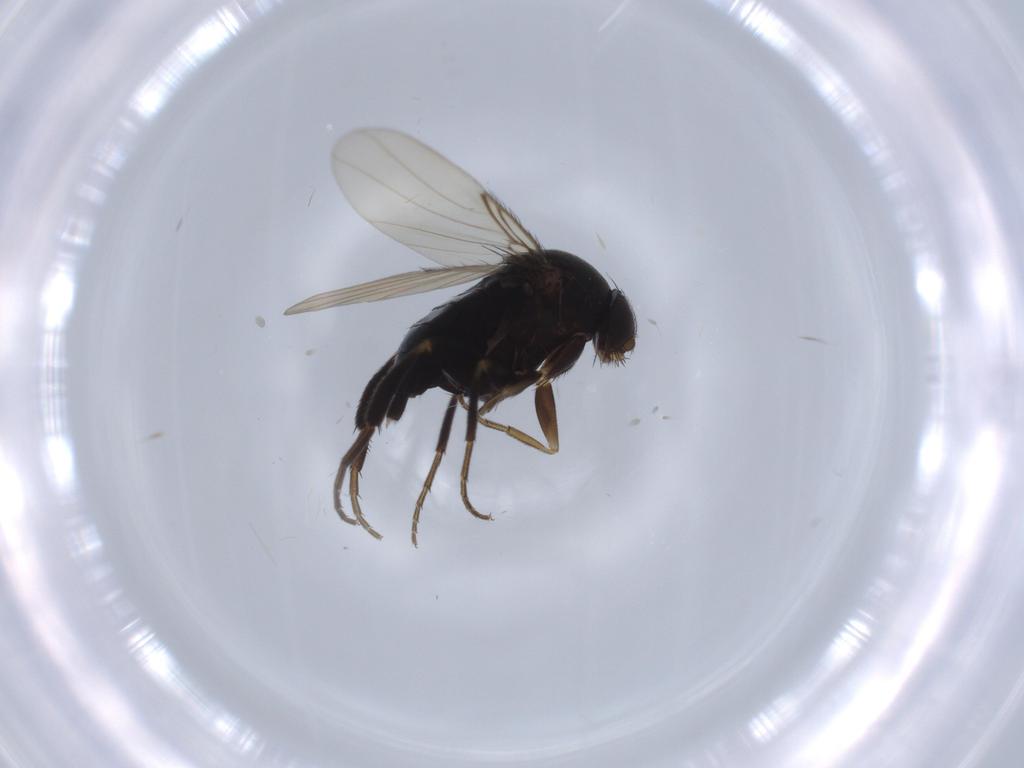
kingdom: Animalia
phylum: Arthropoda
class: Insecta
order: Diptera
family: Phoridae
